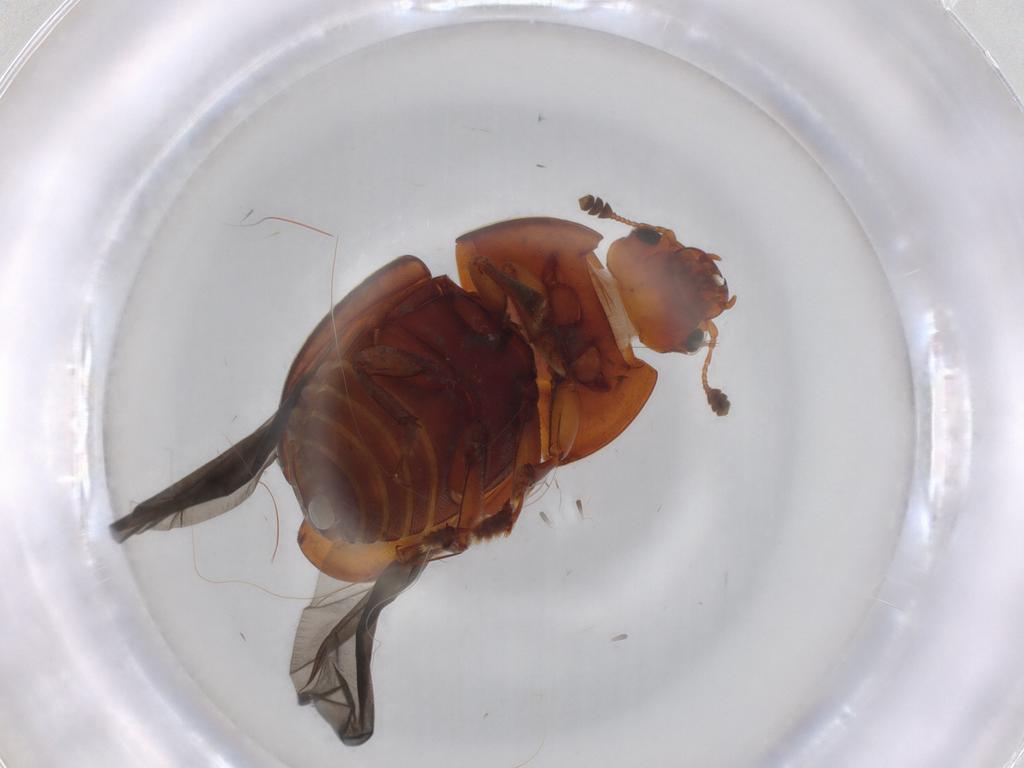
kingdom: Animalia
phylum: Arthropoda
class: Insecta
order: Coleoptera
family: Nitidulidae
